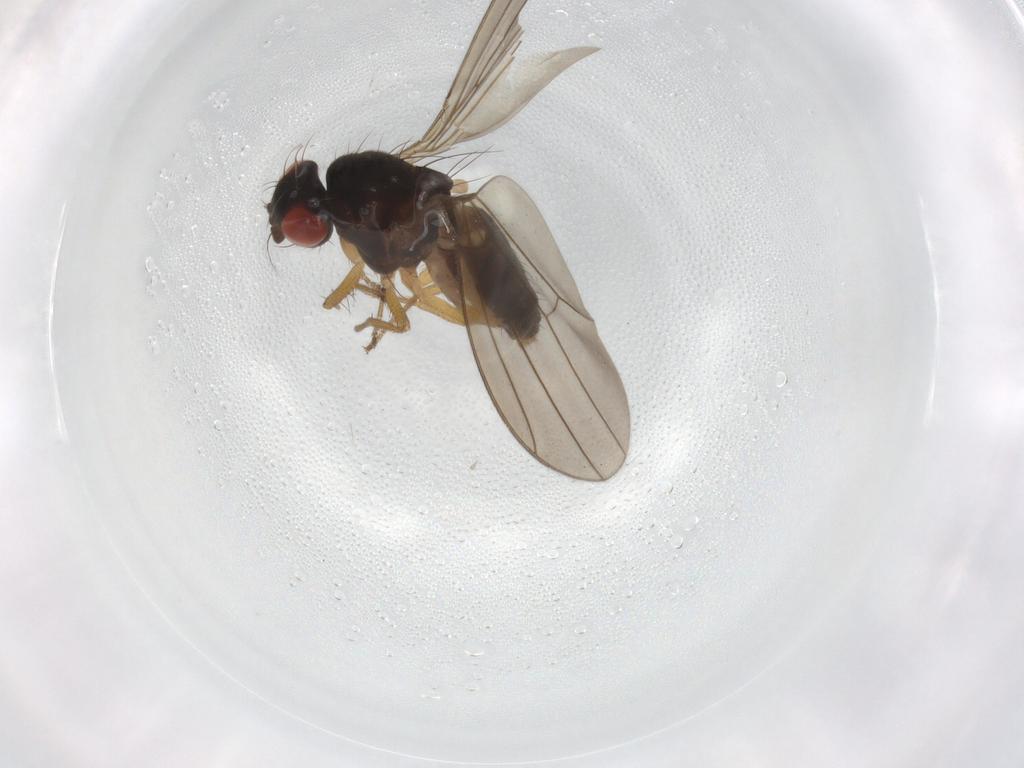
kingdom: Animalia
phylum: Arthropoda
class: Insecta
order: Diptera
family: Drosophilidae
